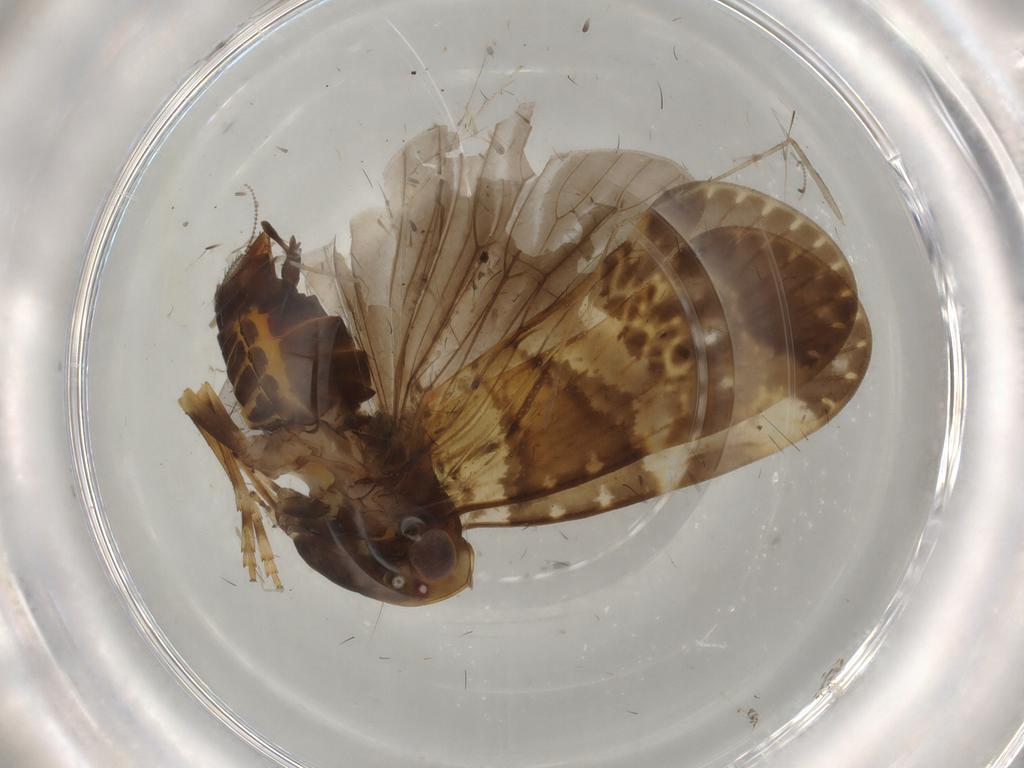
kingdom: Animalia
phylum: Arthropoda
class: Insecta
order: Hemiptera
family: Cixiidae
